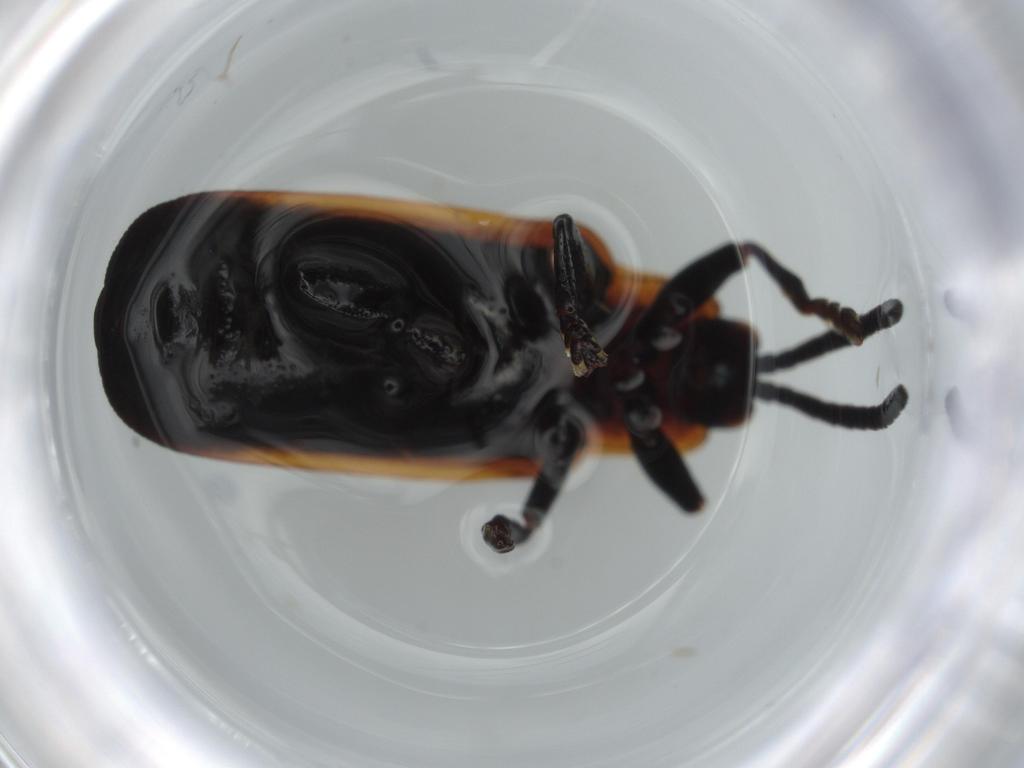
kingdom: Animalia
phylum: Arthropoda
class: Insecta
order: Coleoptera
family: Chrysomelidae
